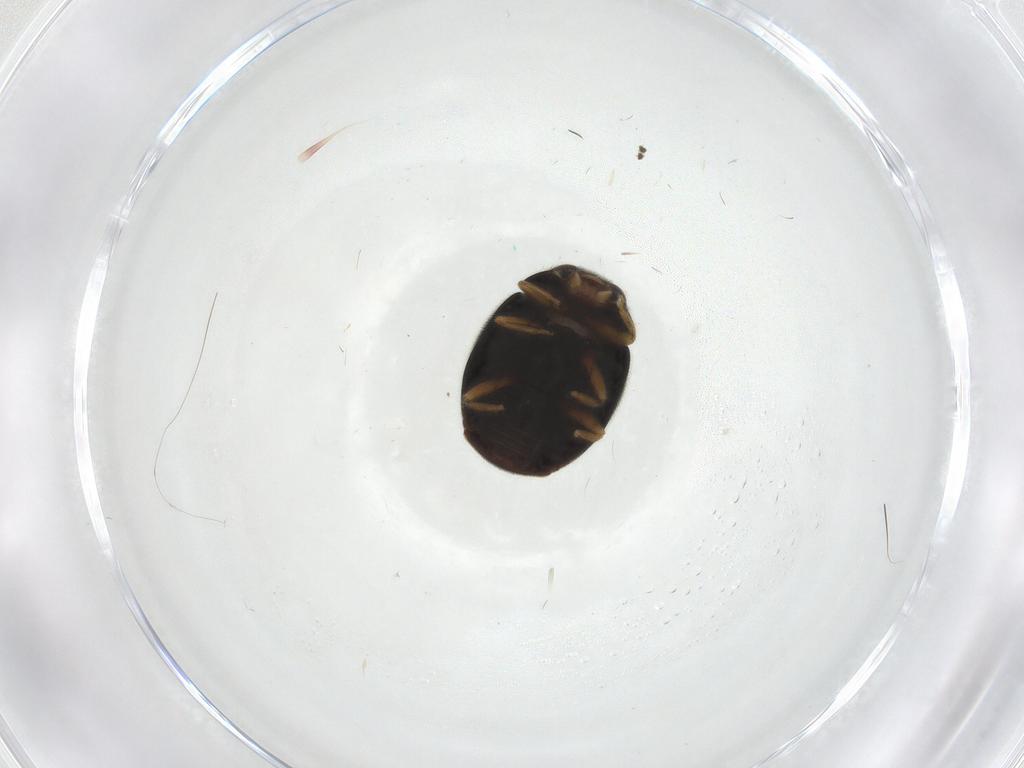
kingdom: Animalia
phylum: Arthropoda
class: Insecta
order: Coleoptera
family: Coccinellidae
